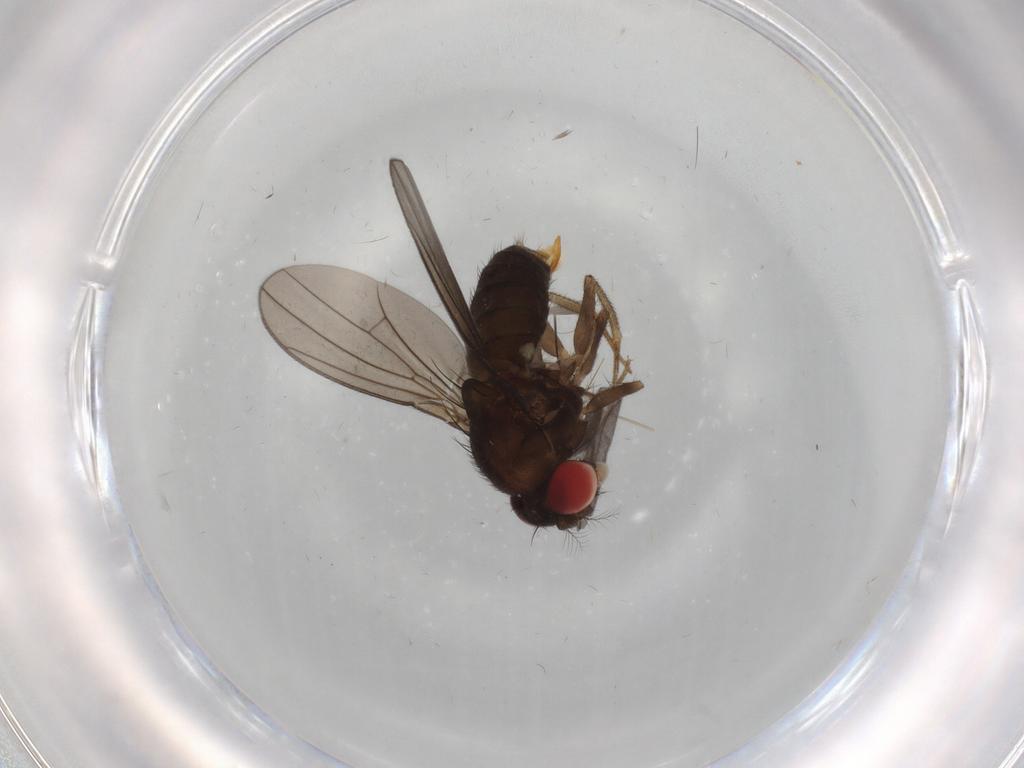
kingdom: Animalia
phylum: Arthropoda
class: Insecta
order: Diptera
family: Drosophilidae
